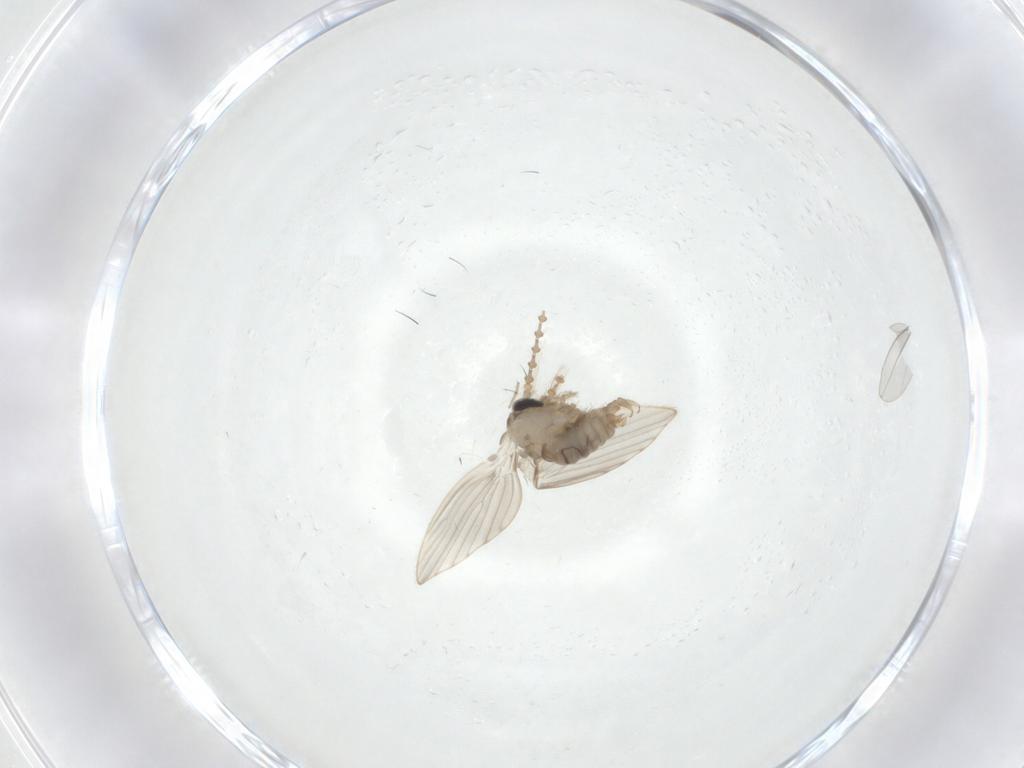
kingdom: Animalia
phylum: Arthropoda
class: Insecta
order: Diptera
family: Psychodidae
